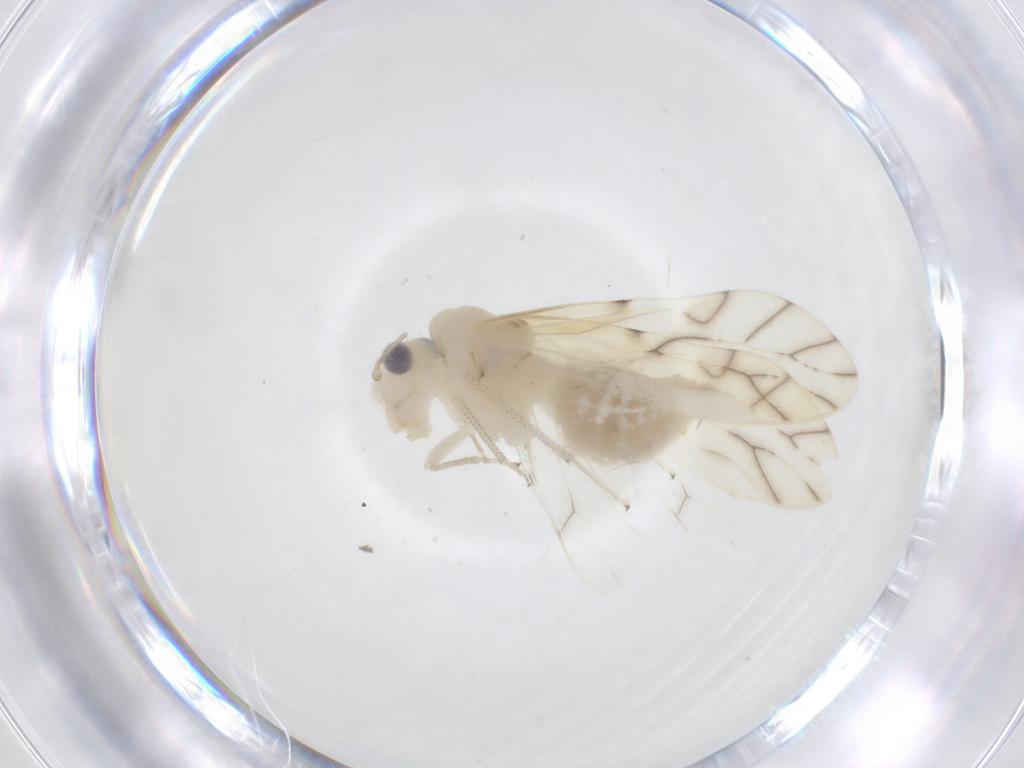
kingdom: Animalia
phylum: Arthropoda
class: Insecta
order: Psocodea
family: Caeciliusidae
